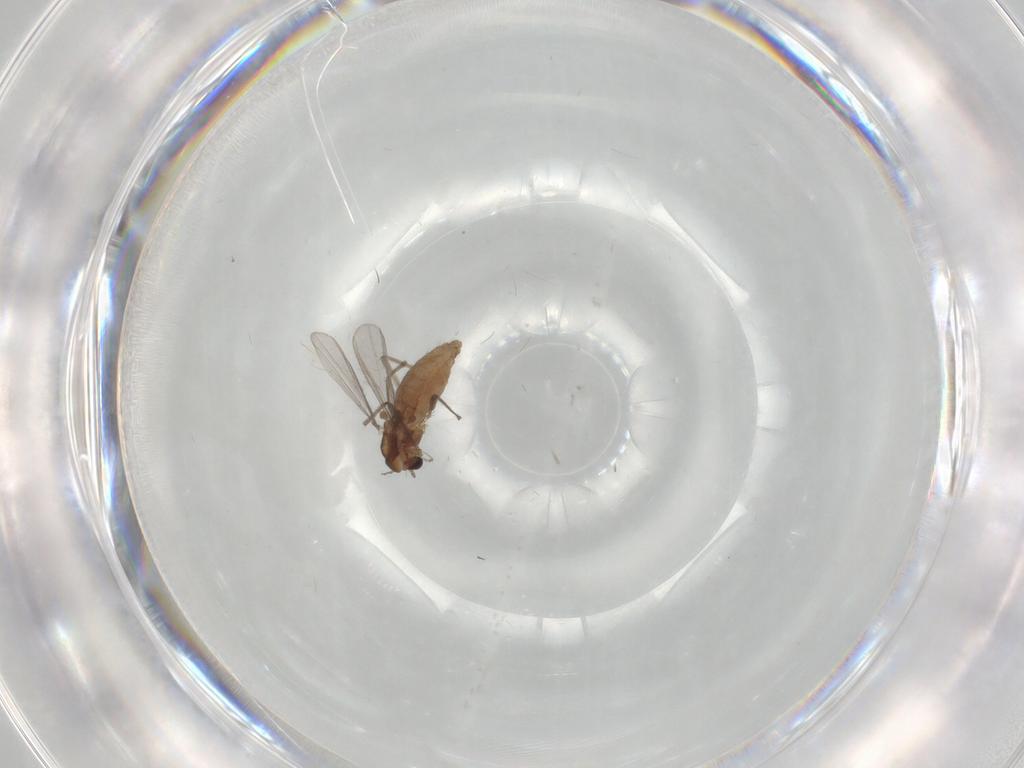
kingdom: Animalia
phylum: Arthropoda
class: Insecta
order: Diptera
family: Chironomidae
